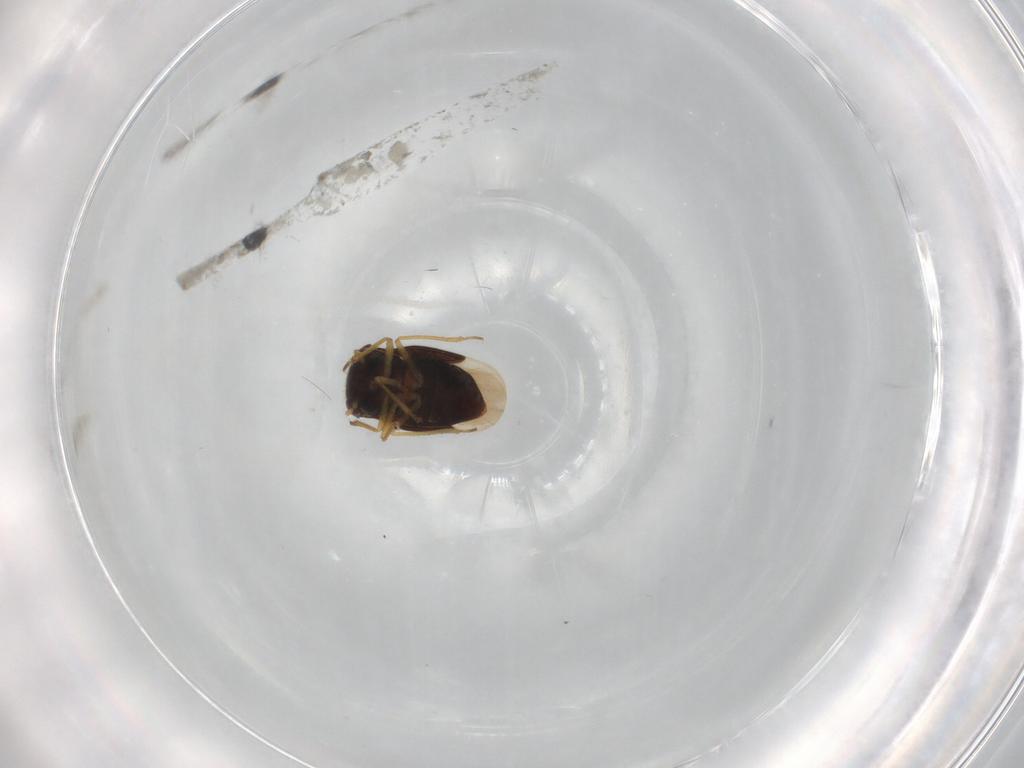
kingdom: Animalia
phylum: Arthropoda
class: Insecta
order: Hemiptera
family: Schizopteridae
